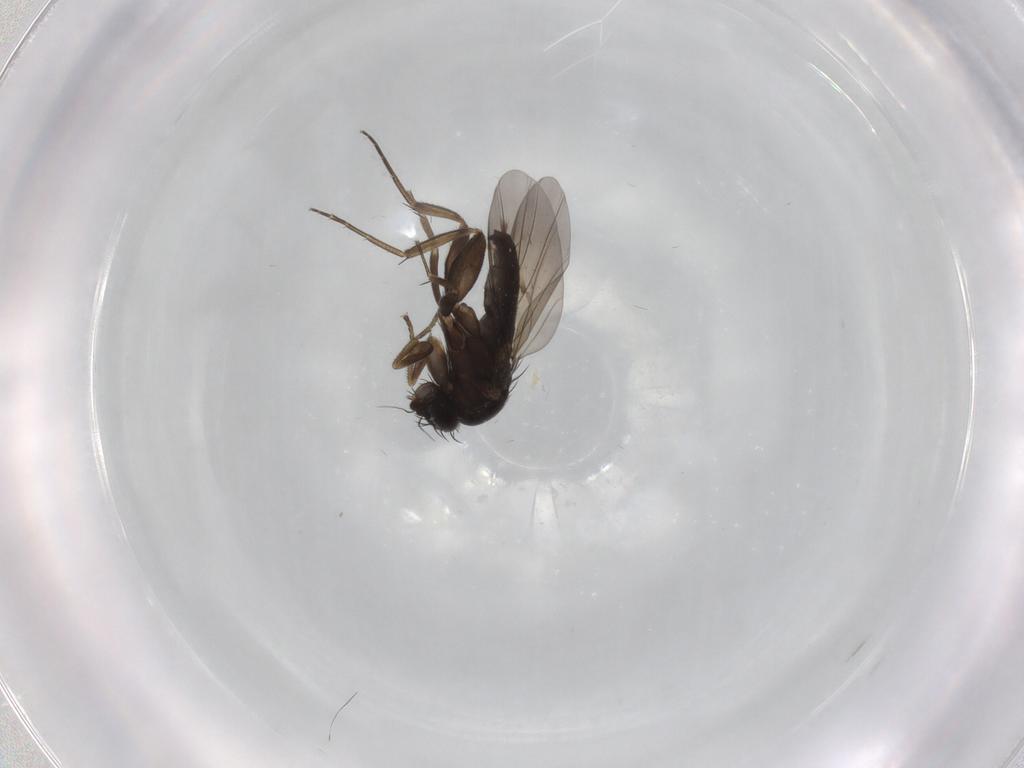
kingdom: Animalia
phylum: Arthropoda
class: Insecta
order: Diptera
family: Phoridae
